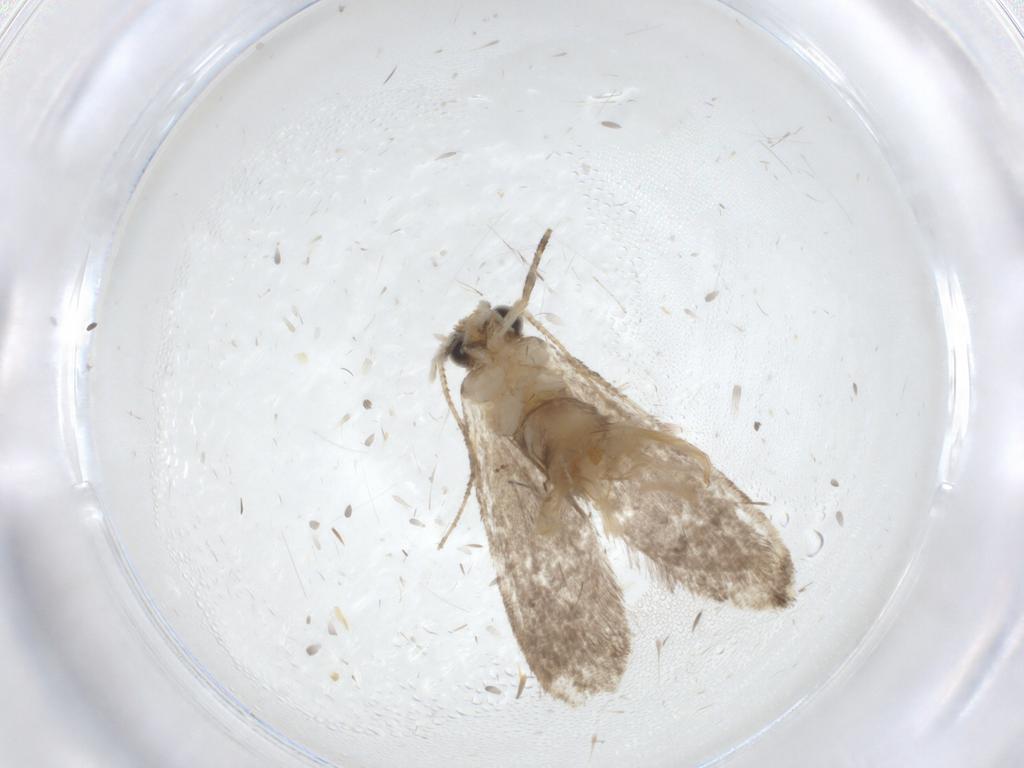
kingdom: Animalia
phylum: Arthropoda
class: Insecta
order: Lepidoptera
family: Tineidae
